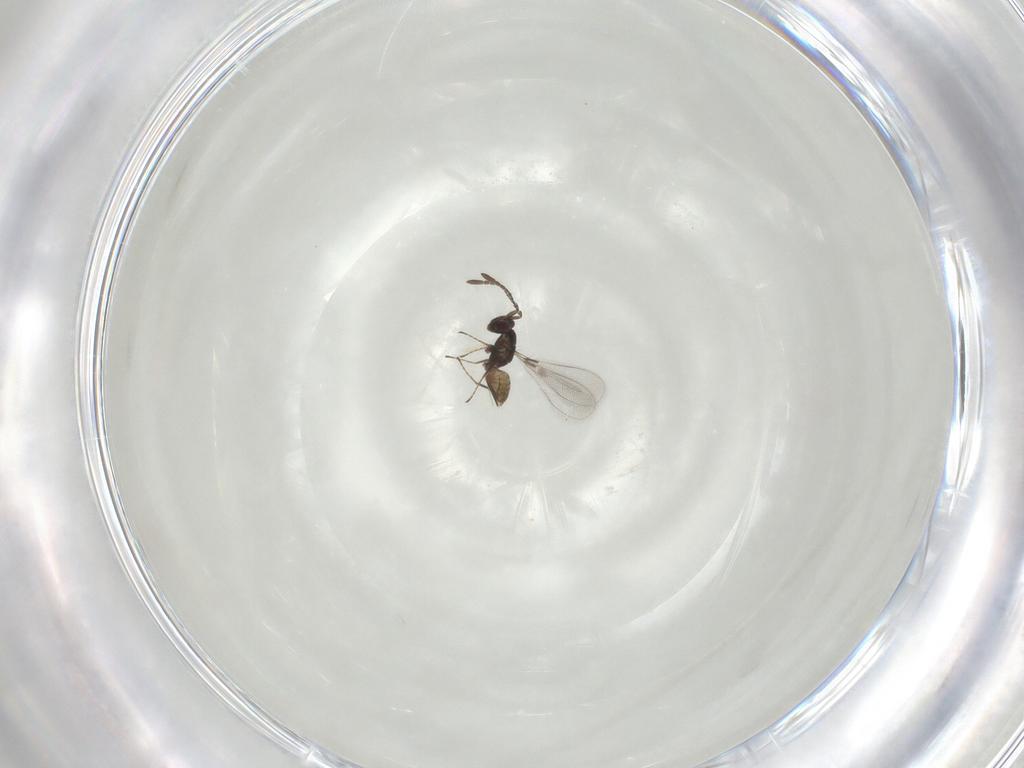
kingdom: Animalia
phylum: Arthropoda
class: Insecta
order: Hymenoptera
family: Mymaridae
